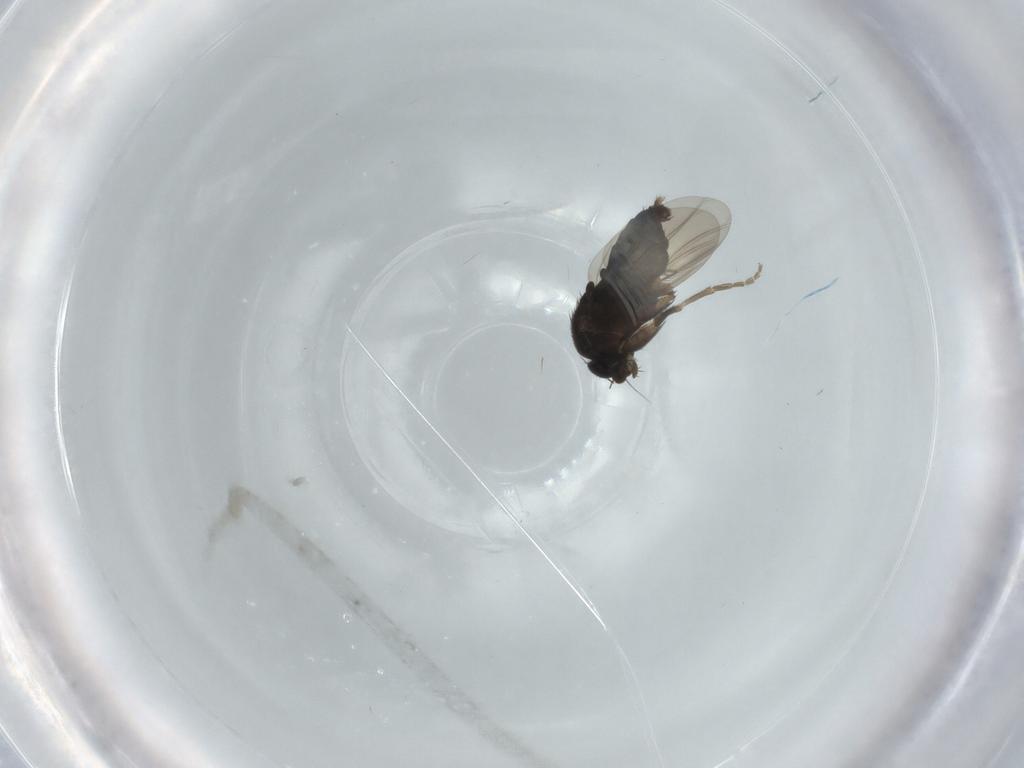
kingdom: Animalia
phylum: Arthropoda
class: Insecta
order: Diptera
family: Phoridae
